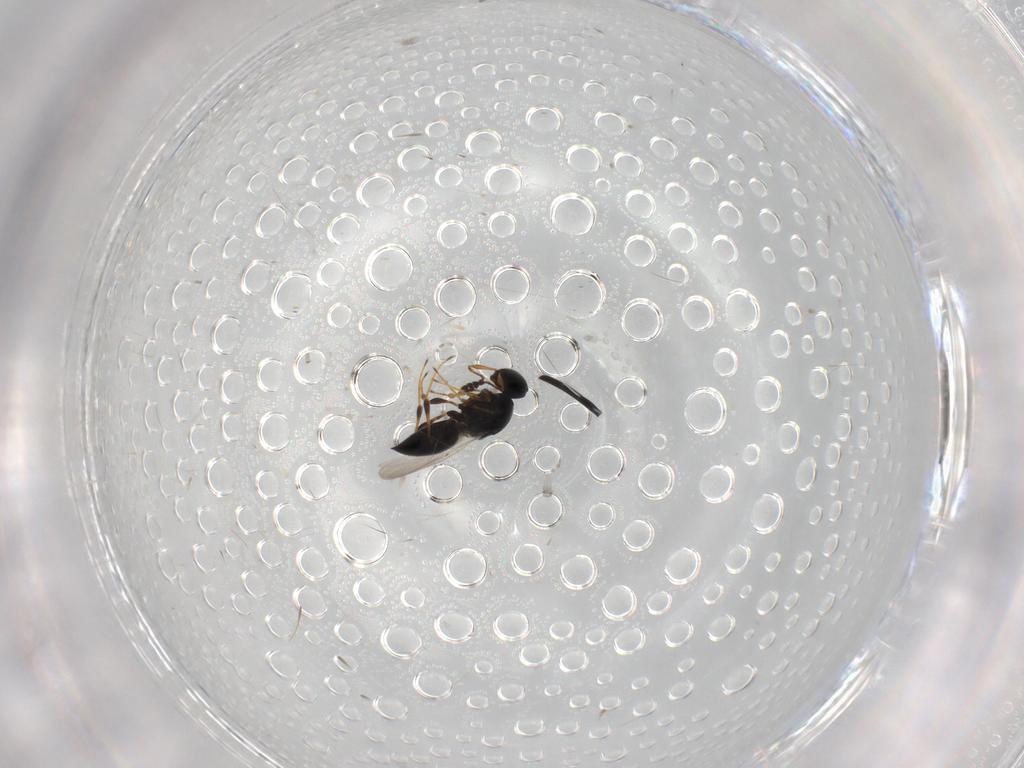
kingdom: Animalia
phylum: Arthropoda
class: Insecta
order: Hymenoptera
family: Platygastridae
